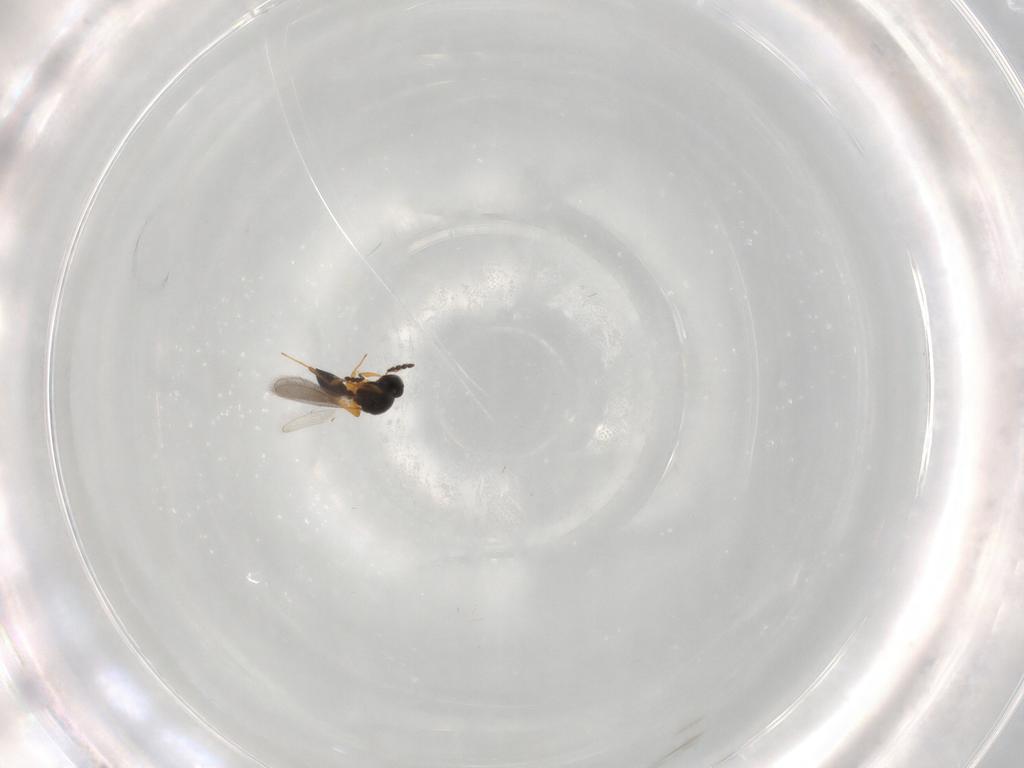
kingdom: Animalia
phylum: Arthropoda
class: Insecta
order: Hymenoptera
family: Platygastridae
